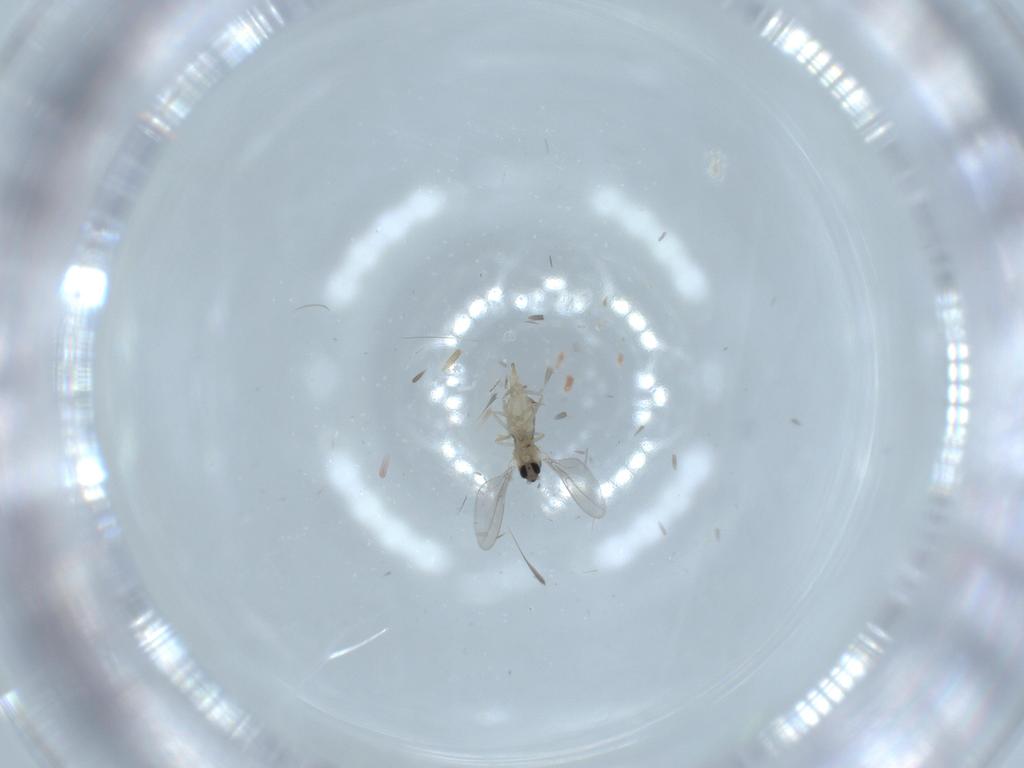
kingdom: Animalia
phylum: Arthropoda
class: Insecta
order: Diptera
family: Cecidomyiidae
